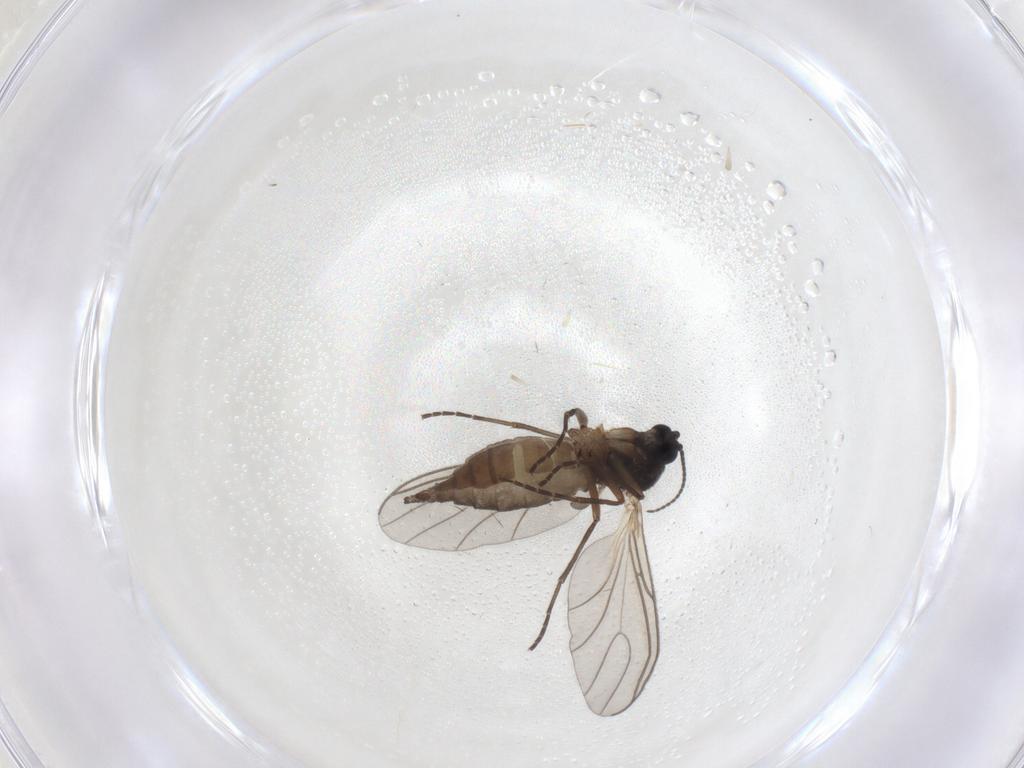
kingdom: Animalia
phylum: Arthropoda
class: Insecta
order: Diptera
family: Sciaridae
